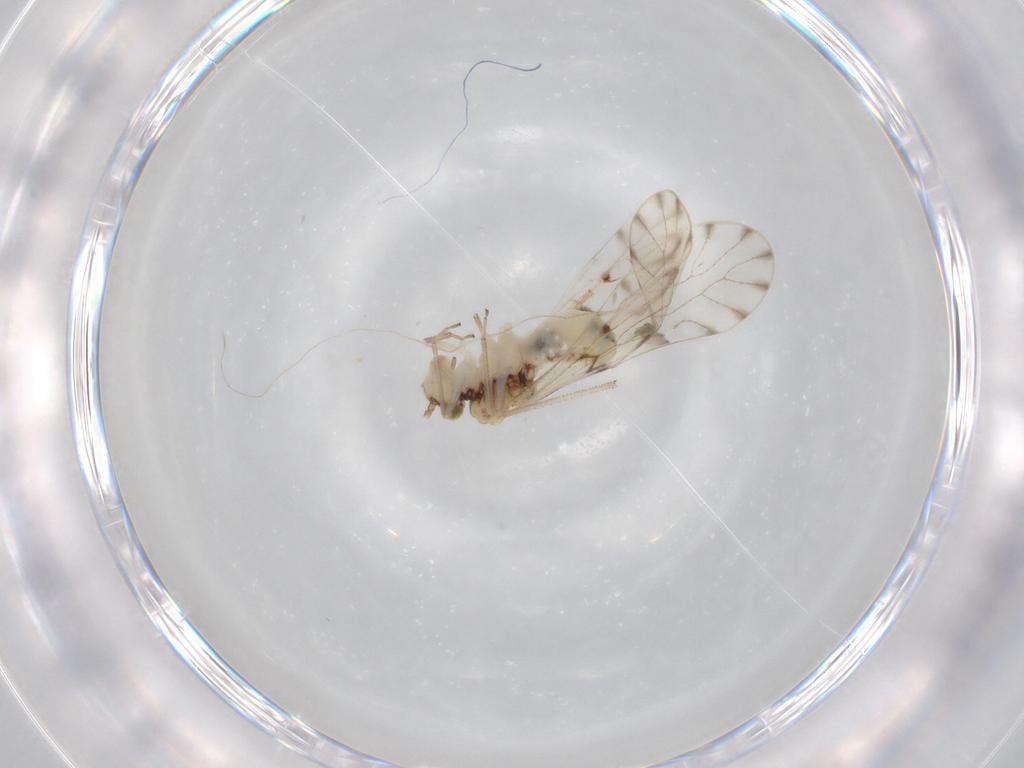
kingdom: Animalia
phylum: Arthropoda
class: Insecta
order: Psocodea
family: Ectopsocidae
